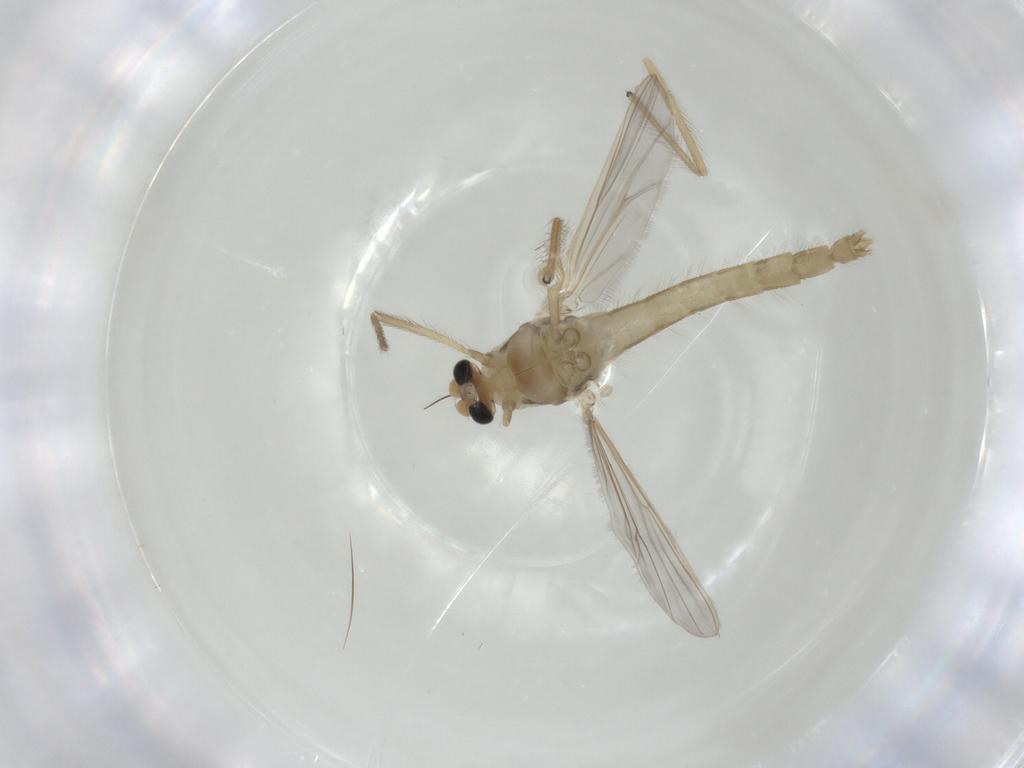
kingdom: Animalia
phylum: Arthropoda
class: Insecta
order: Diptera
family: Chironomidae
